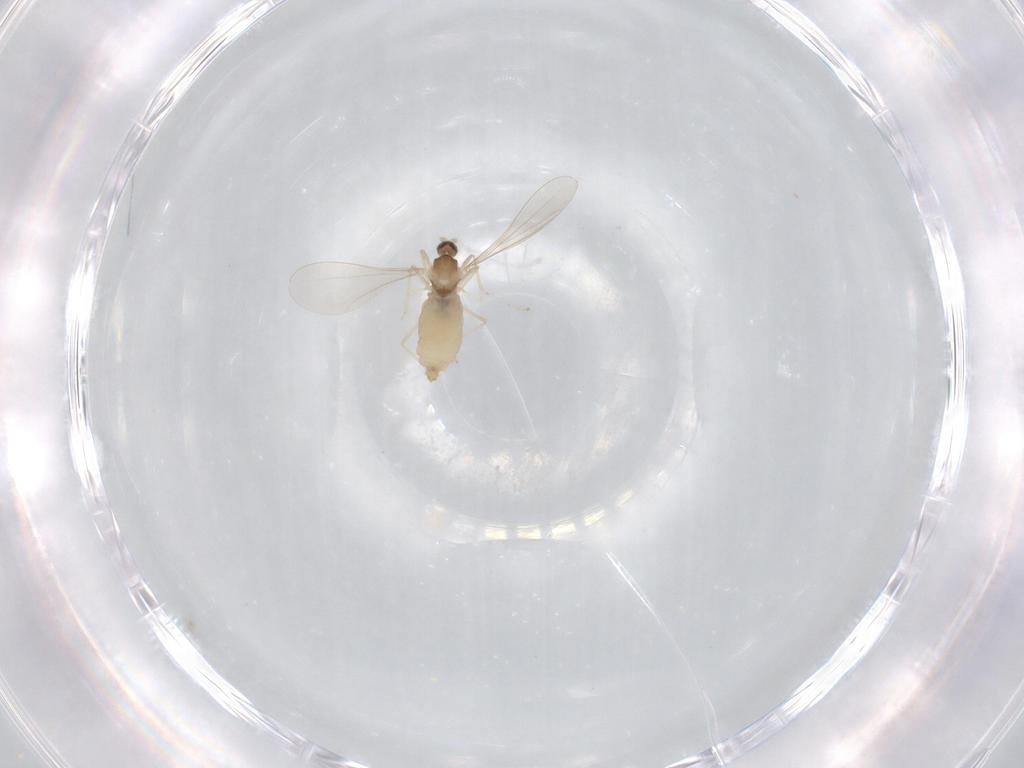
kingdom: Animalia
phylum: Arthropoda
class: Insecta
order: Diptera
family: Cecidomyiidae
